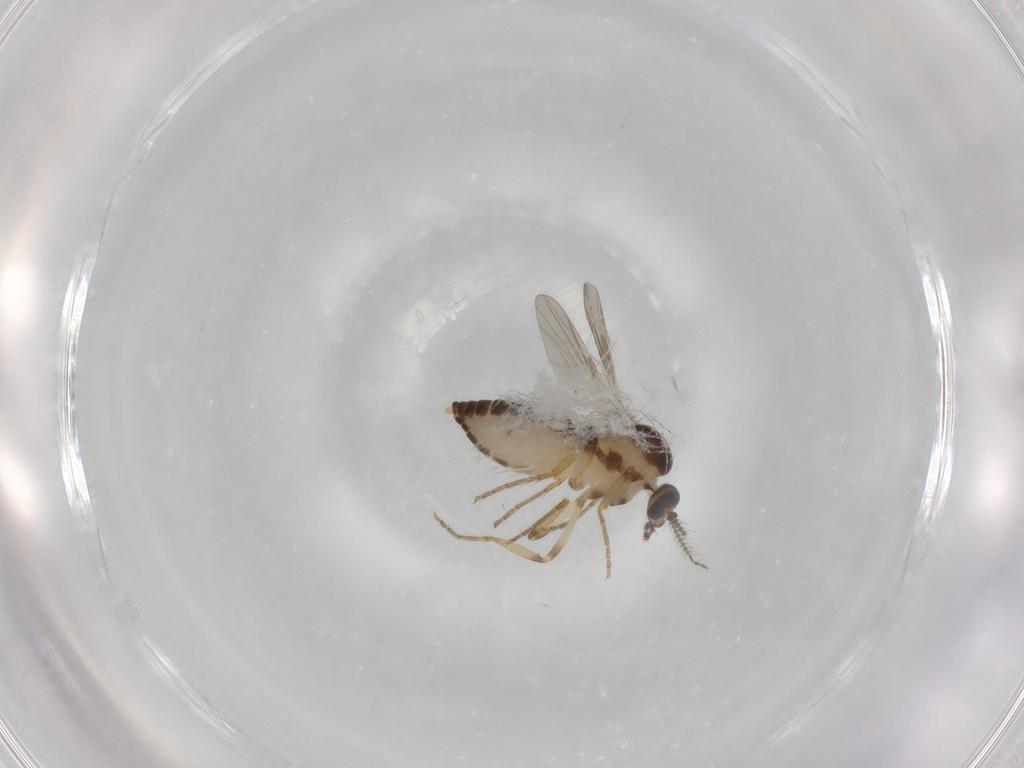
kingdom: Animalia
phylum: Arthropoda
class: Insecta
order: Diptera
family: Ceratopogonidae
